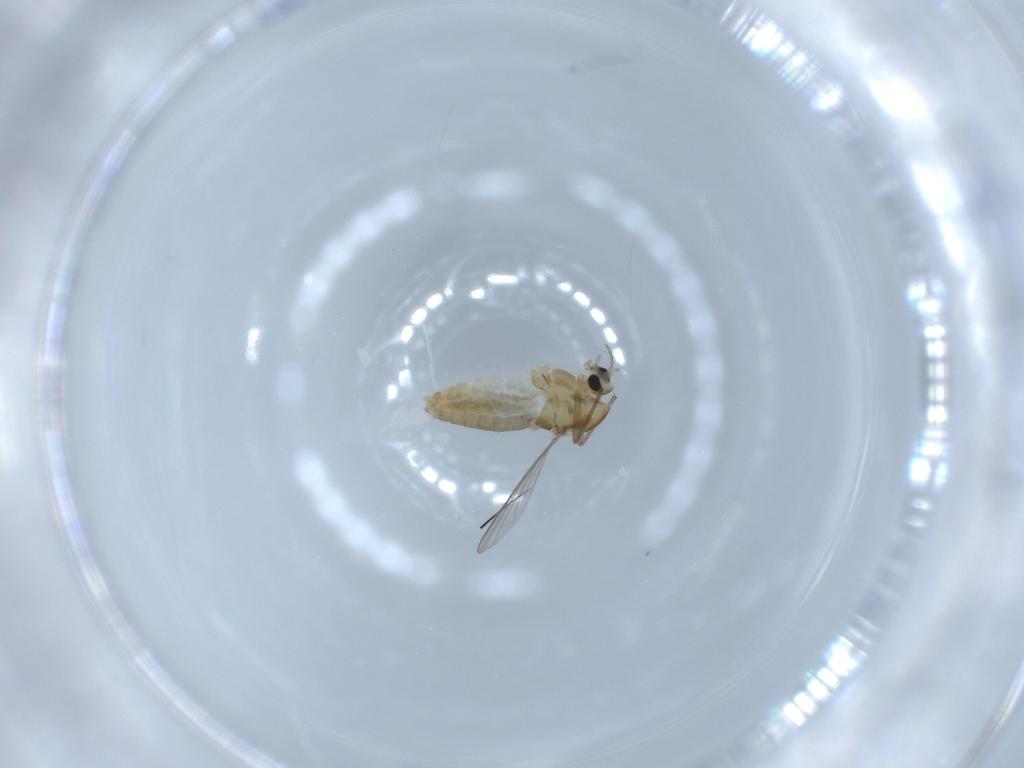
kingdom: Animalia
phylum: Arthropoda
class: Insecta
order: Diptera
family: Chironomidae
